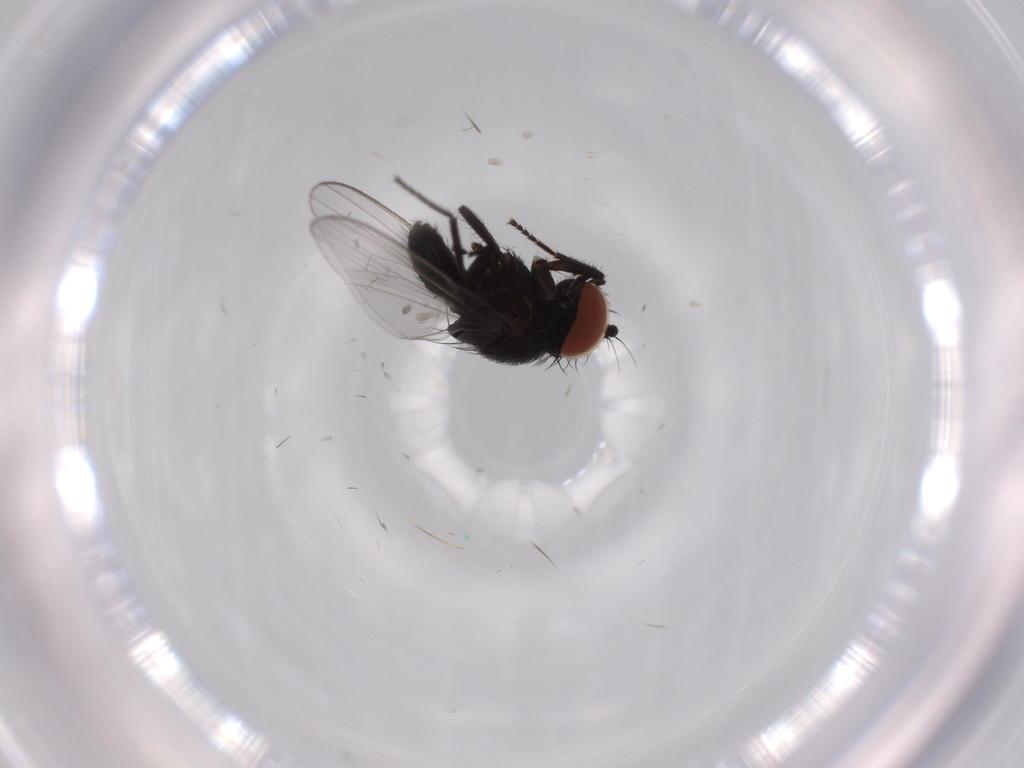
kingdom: Animalia
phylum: Arthropoda
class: Insecta
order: Diptera
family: Milichiidae
